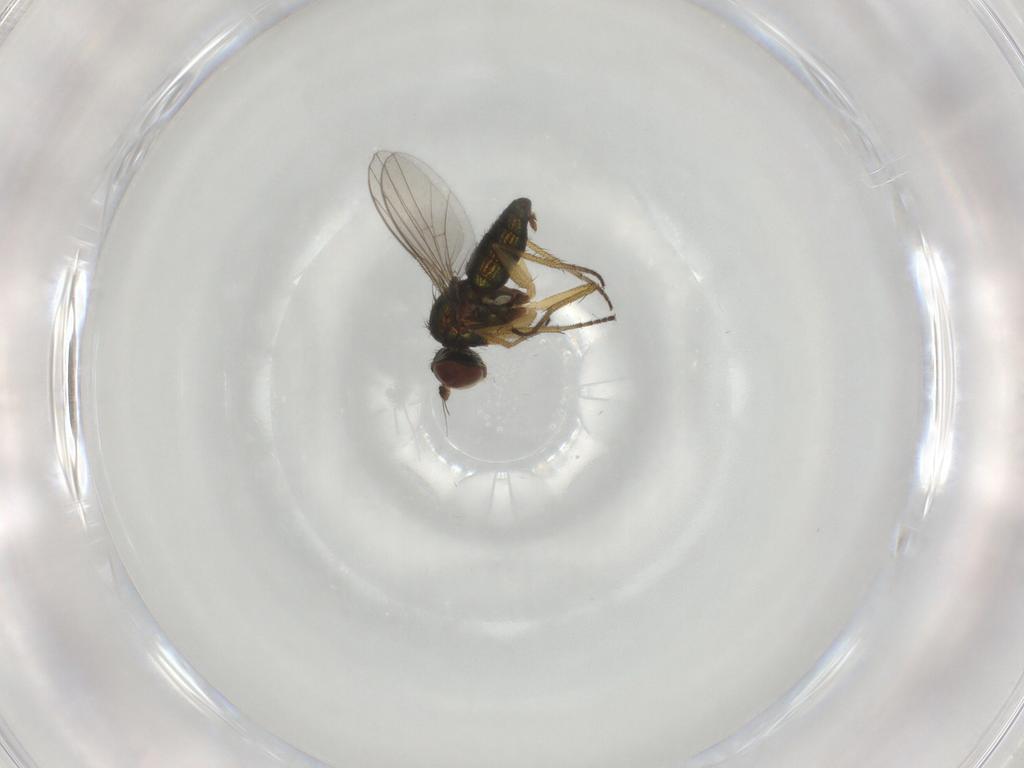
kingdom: Animalia
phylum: Arthropoda
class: Insecta
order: Diptera
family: Dolichopodidae
